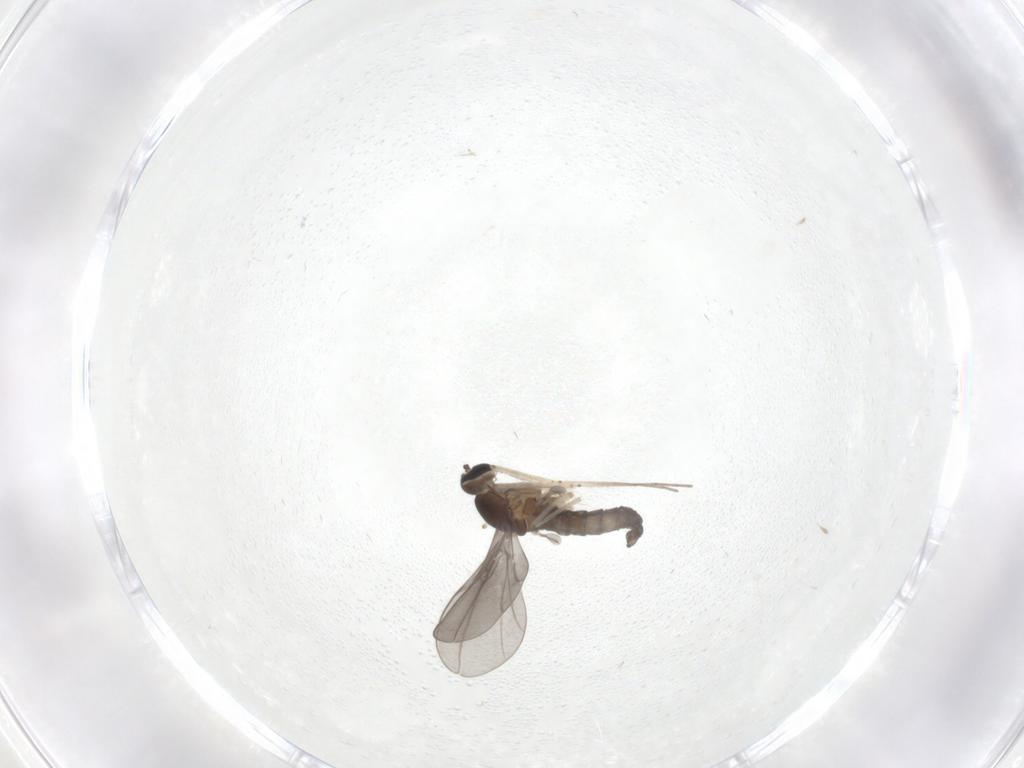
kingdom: Animalia
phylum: Arthropoda
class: Insecta
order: Diptera
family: Cecidomyiidae
